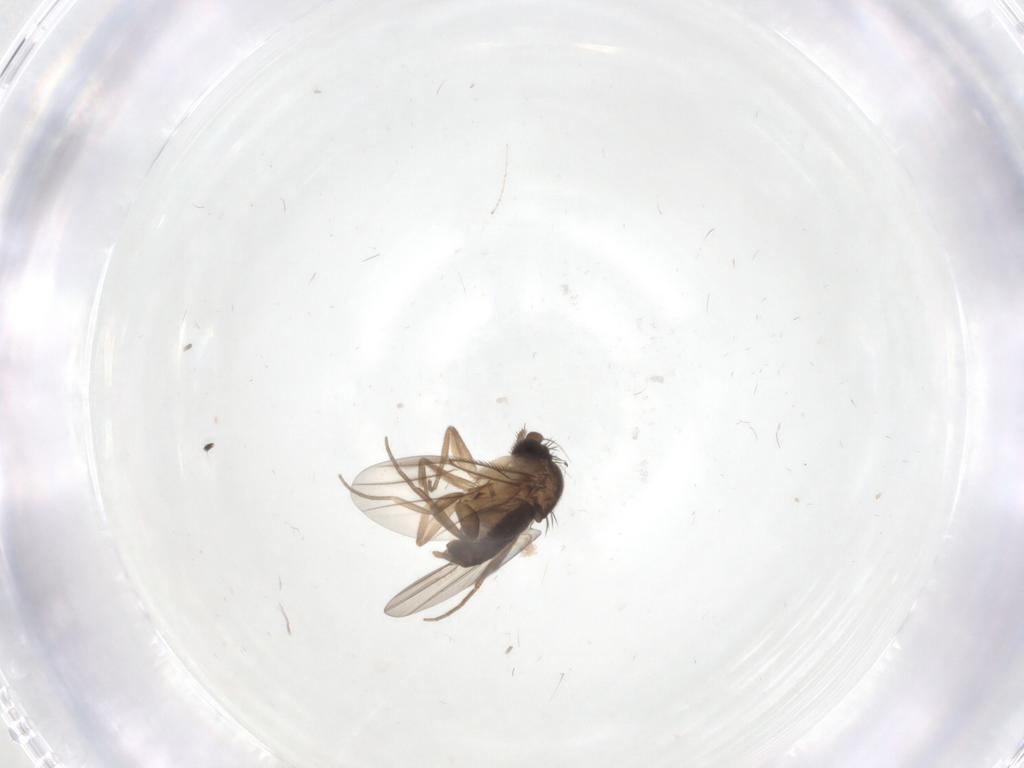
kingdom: Animalia
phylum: Arthropoda
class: Insecta
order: Diptera
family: Phoridae
